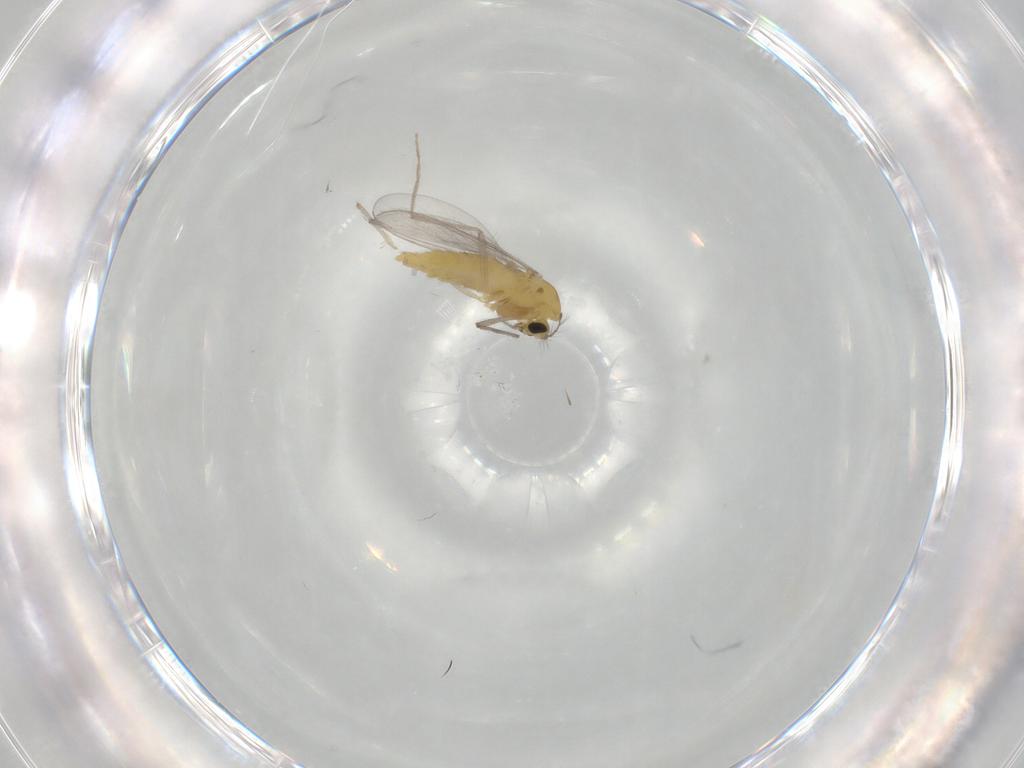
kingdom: Animalia
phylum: Arthropoda
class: Insecta
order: Diptera
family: Chironomidae
